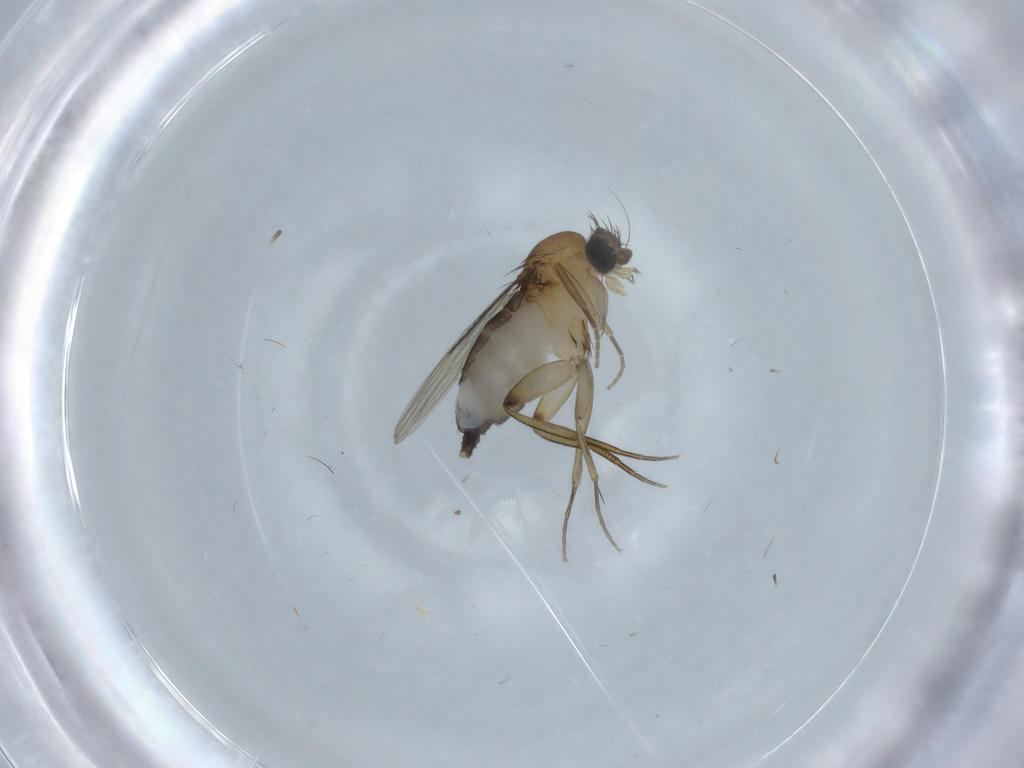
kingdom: Animalia
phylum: Arthropoda
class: Insecta
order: Diptera
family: Phoridae
